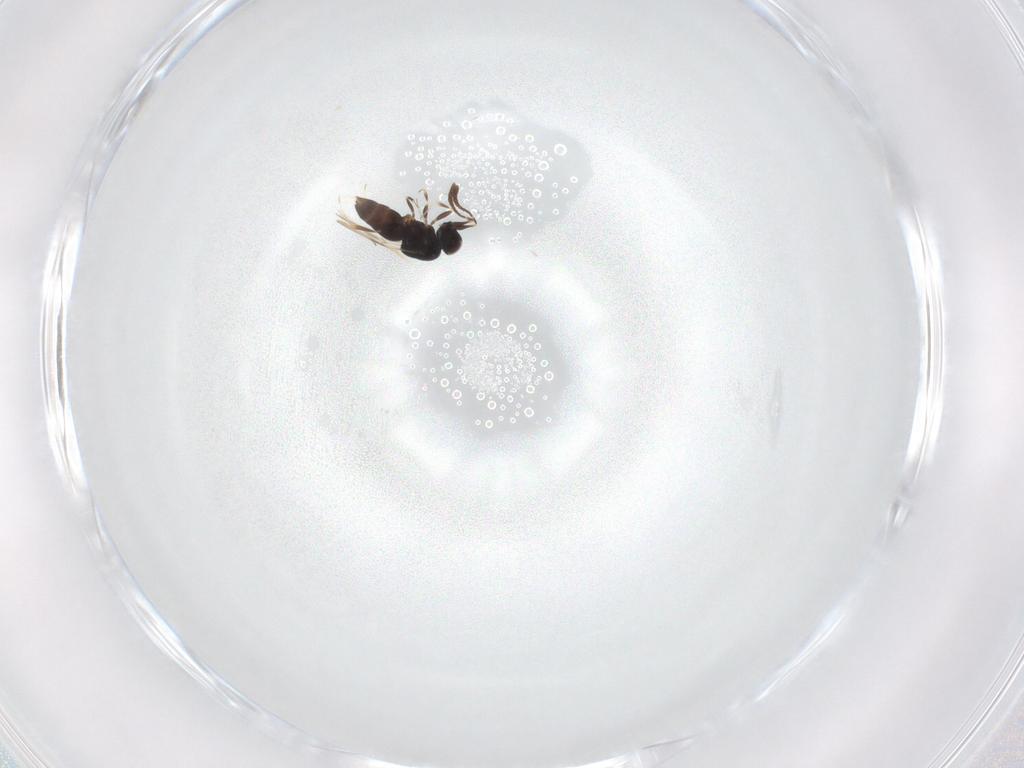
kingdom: Animalia
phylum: Arthropoda
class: Insecta
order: Hymenoptera
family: Ceraphronidae
